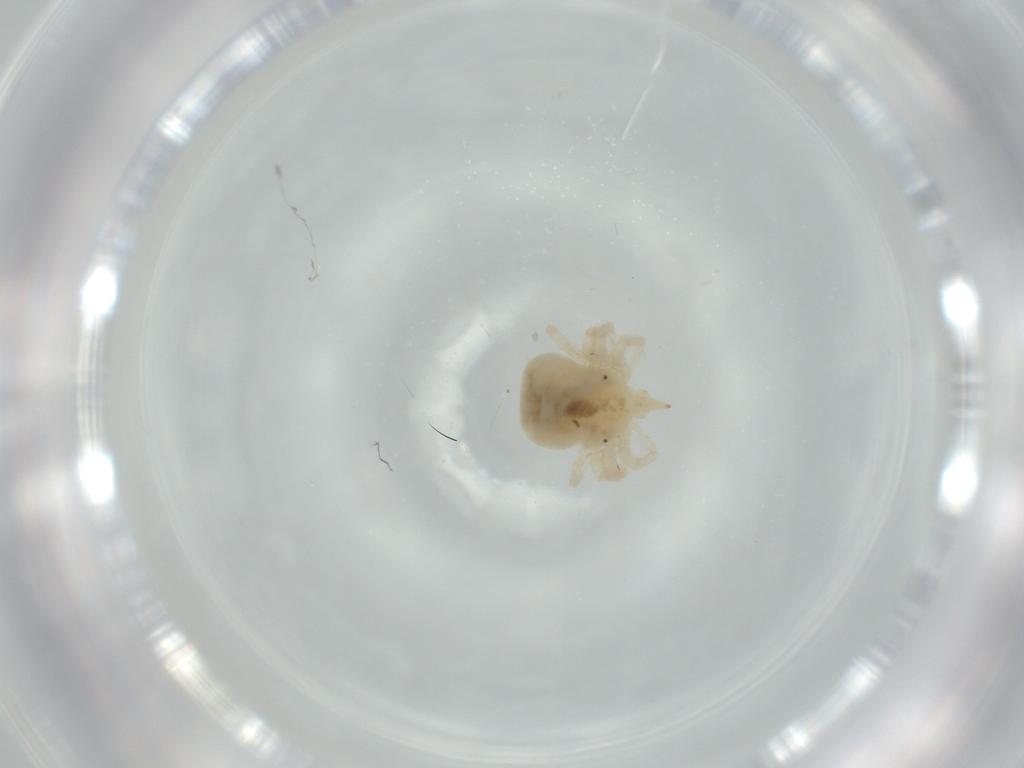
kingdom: Animalia
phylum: Arthropoda
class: Arachnida
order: Trombidiformes
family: Anystidae
